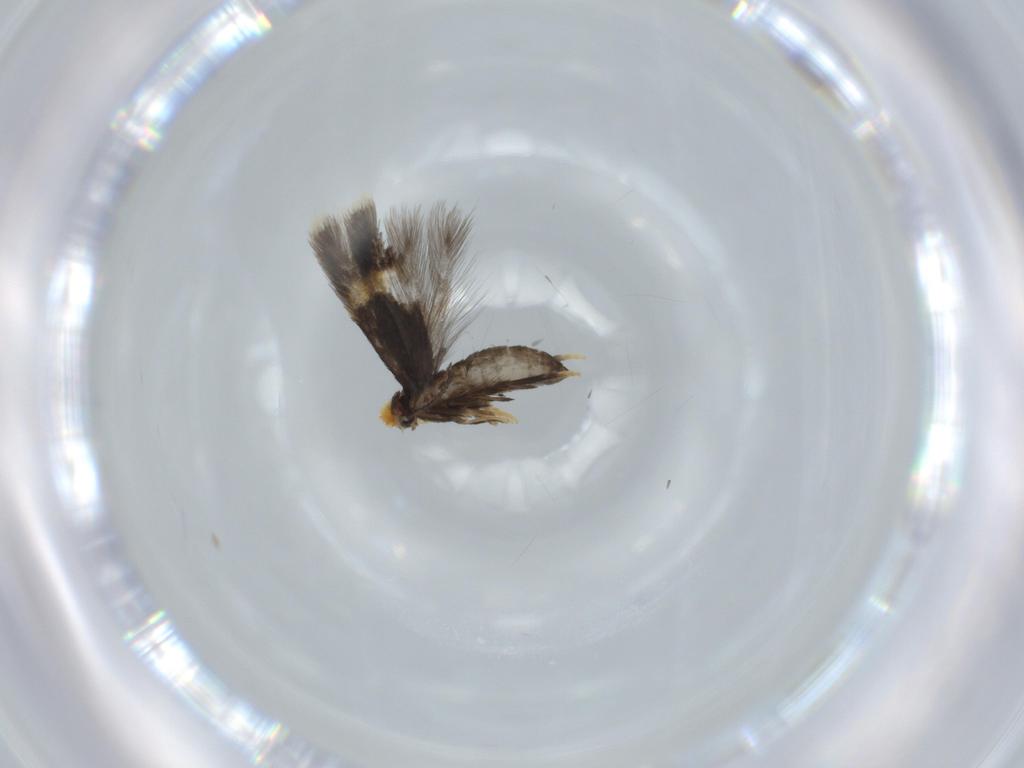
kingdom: Animalia
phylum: Arthropoda
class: Insecta
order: Lepidoptera
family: Nepticulidae
